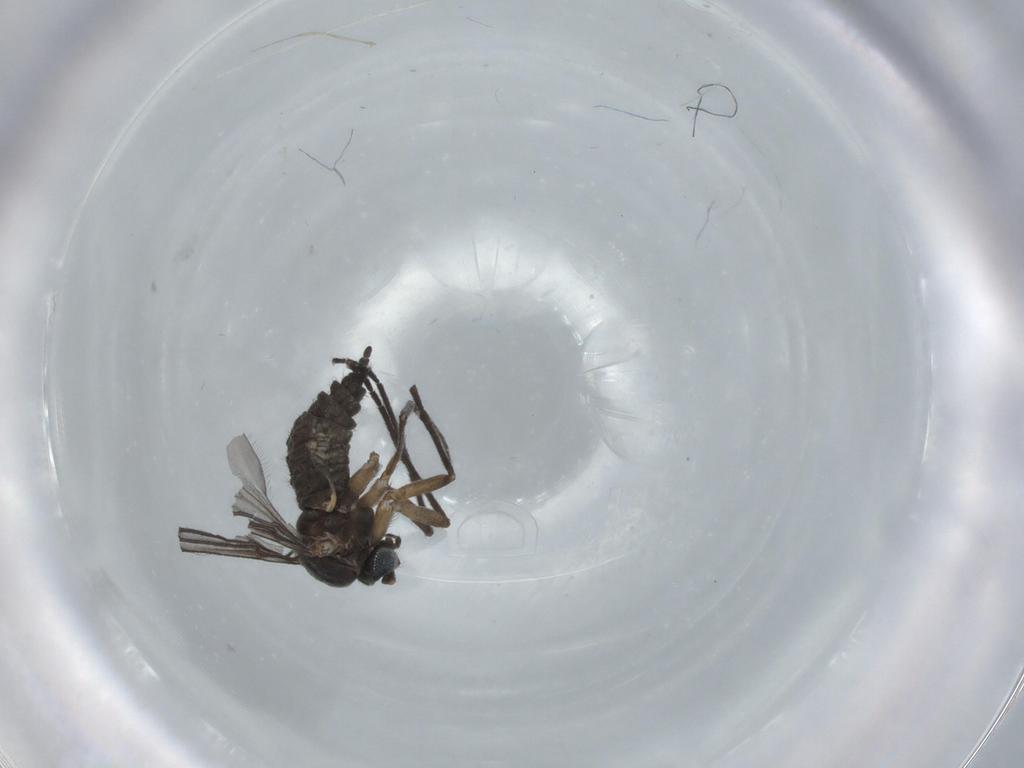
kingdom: Animalia
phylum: Arthropoda
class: Insecta
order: Diptera
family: Sciaridae
